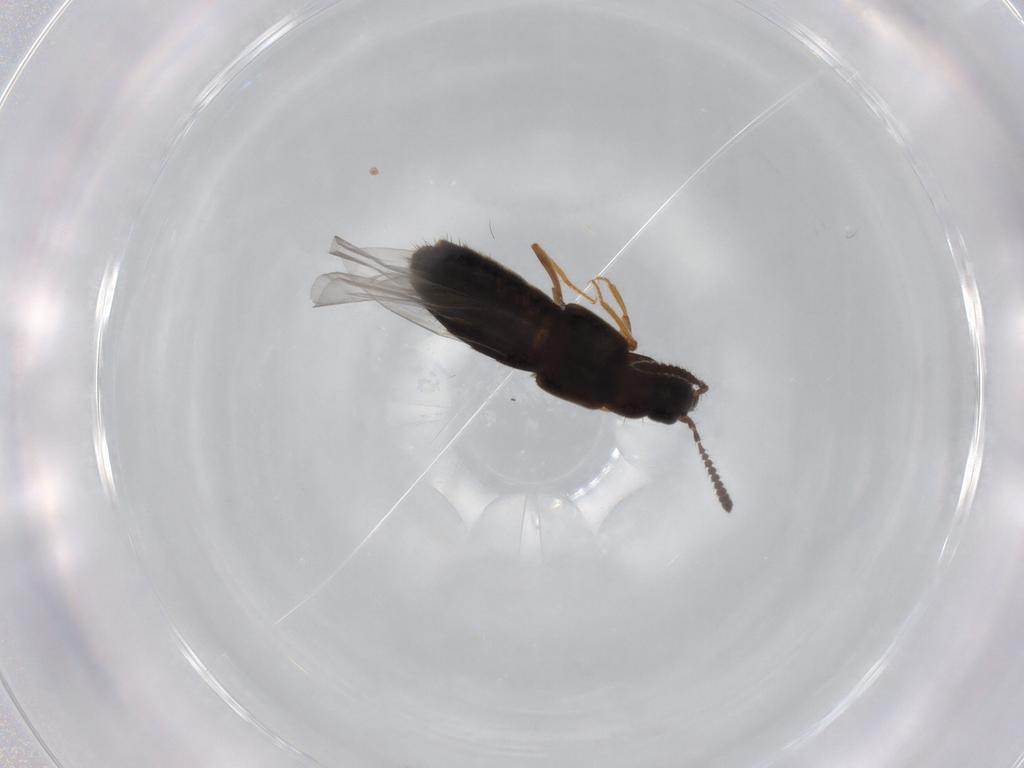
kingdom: Animalia
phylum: Arthropoda
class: Insecta
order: Coleoptera
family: Staphylinidae
